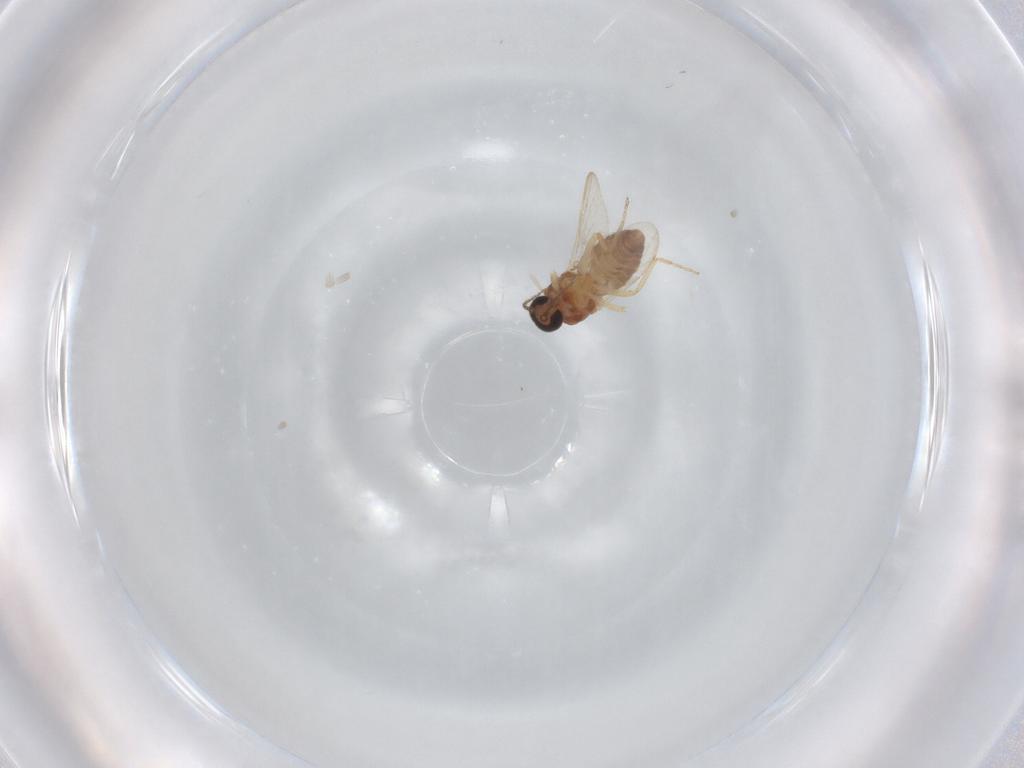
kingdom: Animalia
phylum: Arthropoda
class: Insecta
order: Diptera
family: Ceratopogonidae
